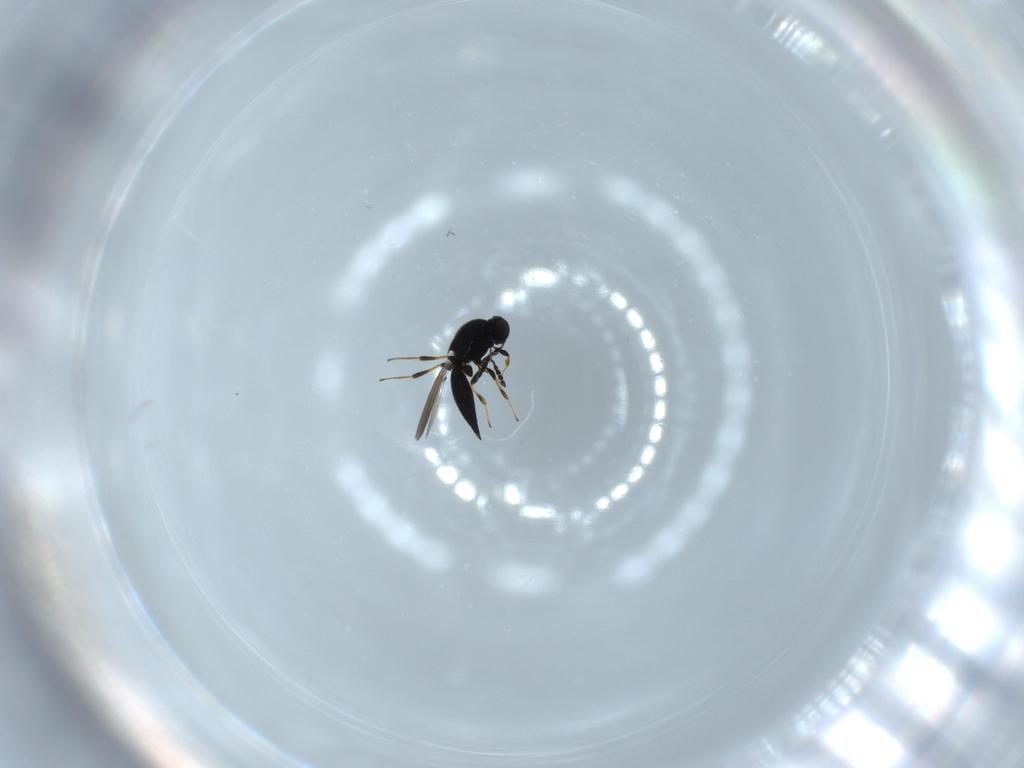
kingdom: Animalia
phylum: Arthropoda
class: Insecta
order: Hymenoptera
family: Platygastridae
